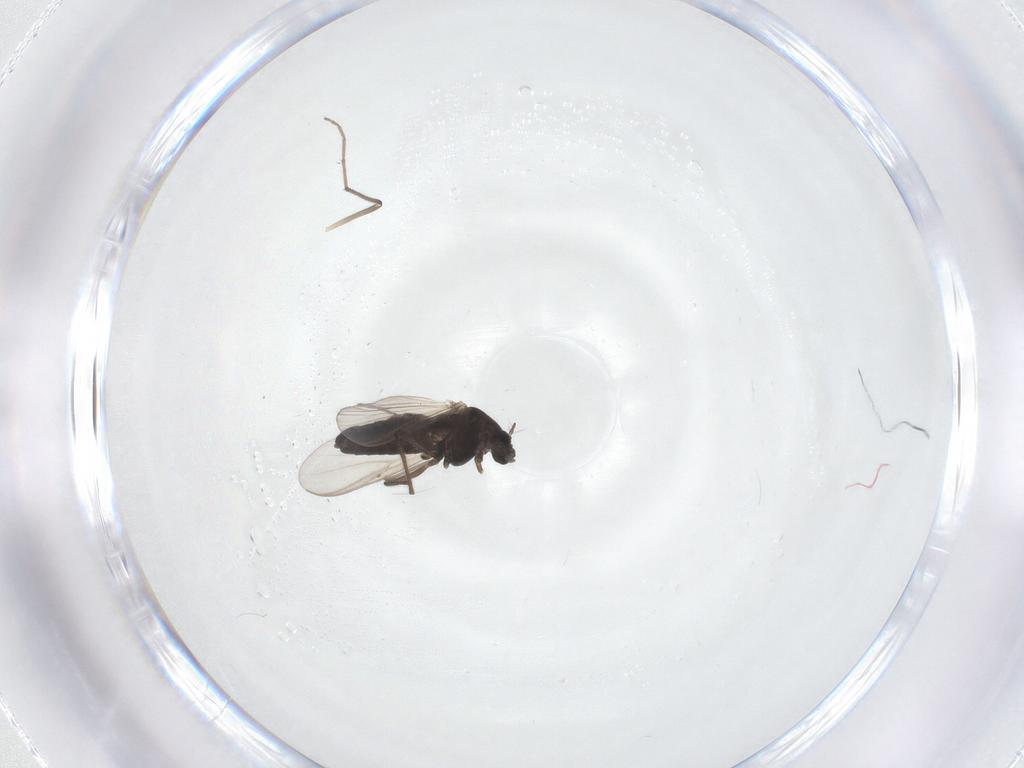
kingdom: Animalia
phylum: Arthropoda
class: Insecta
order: Diptera
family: Chironomidae
